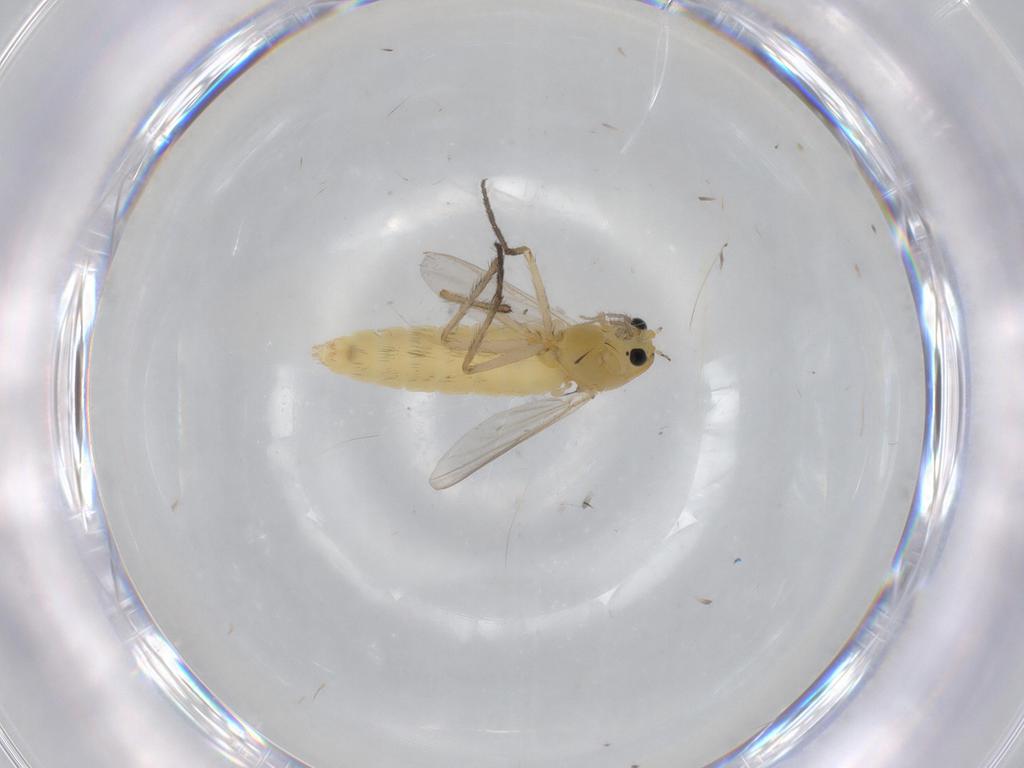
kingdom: Animalia
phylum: Arthropoda
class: Insecta
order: Diptera
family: Chironomidae
